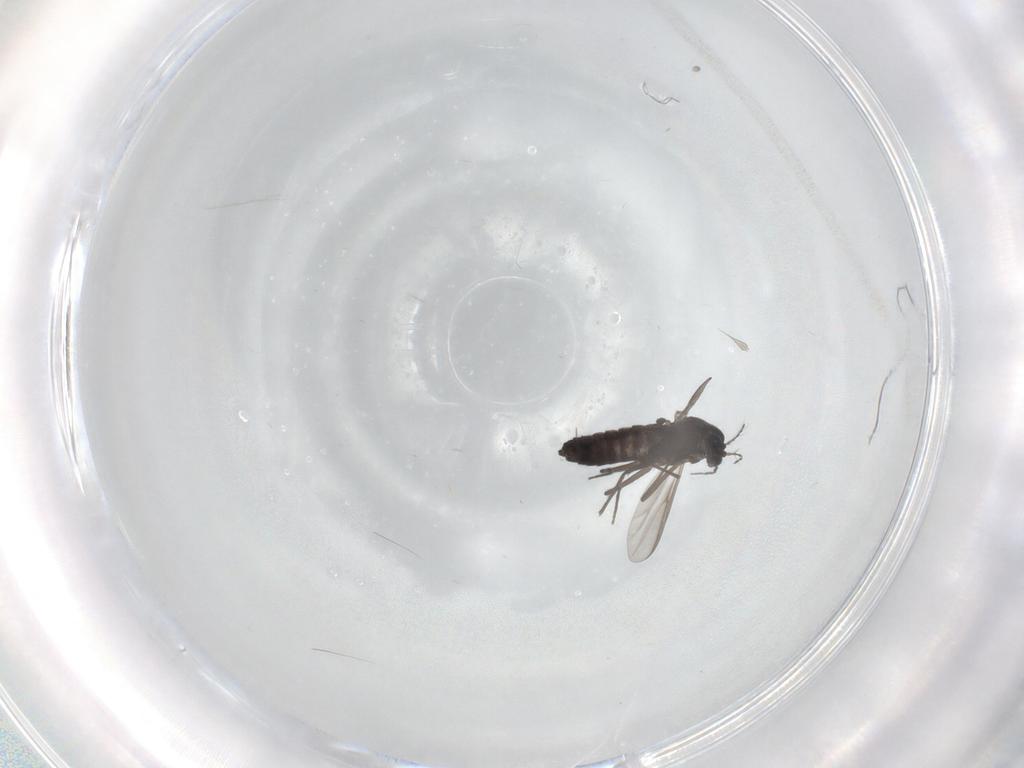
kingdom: Animalia
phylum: Arthropoda
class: Insecta
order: Diptera
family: Chironomidae
